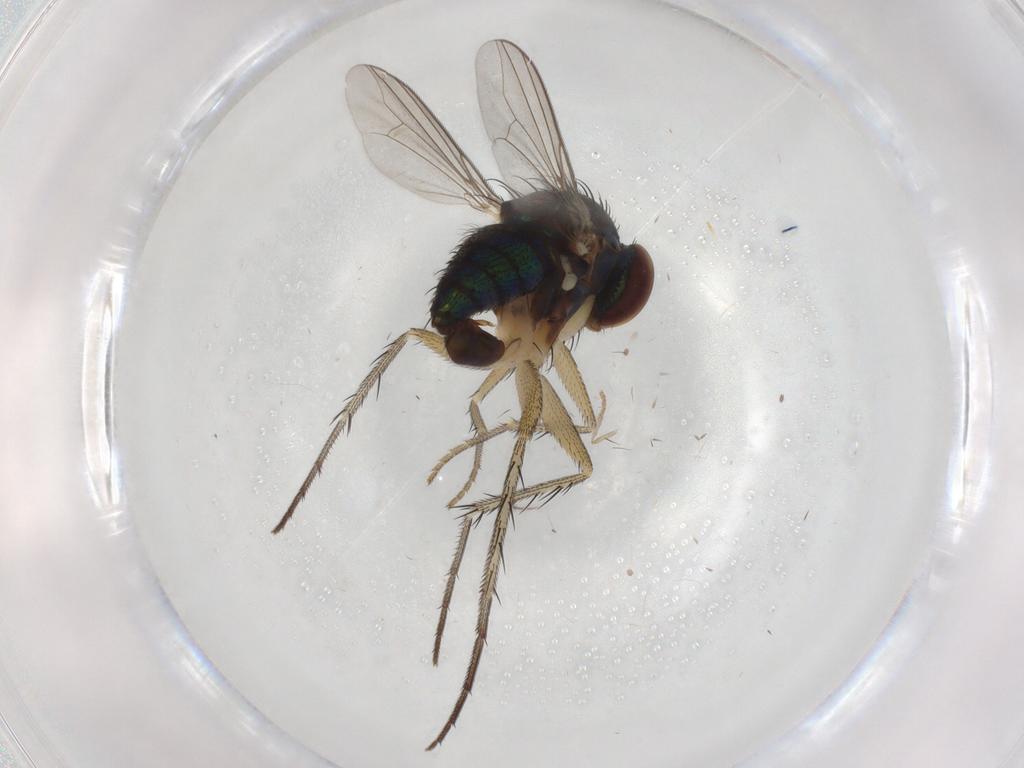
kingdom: Animalia
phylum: Arthropoda
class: Insecta
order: Diptera
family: Dolichopodidae
